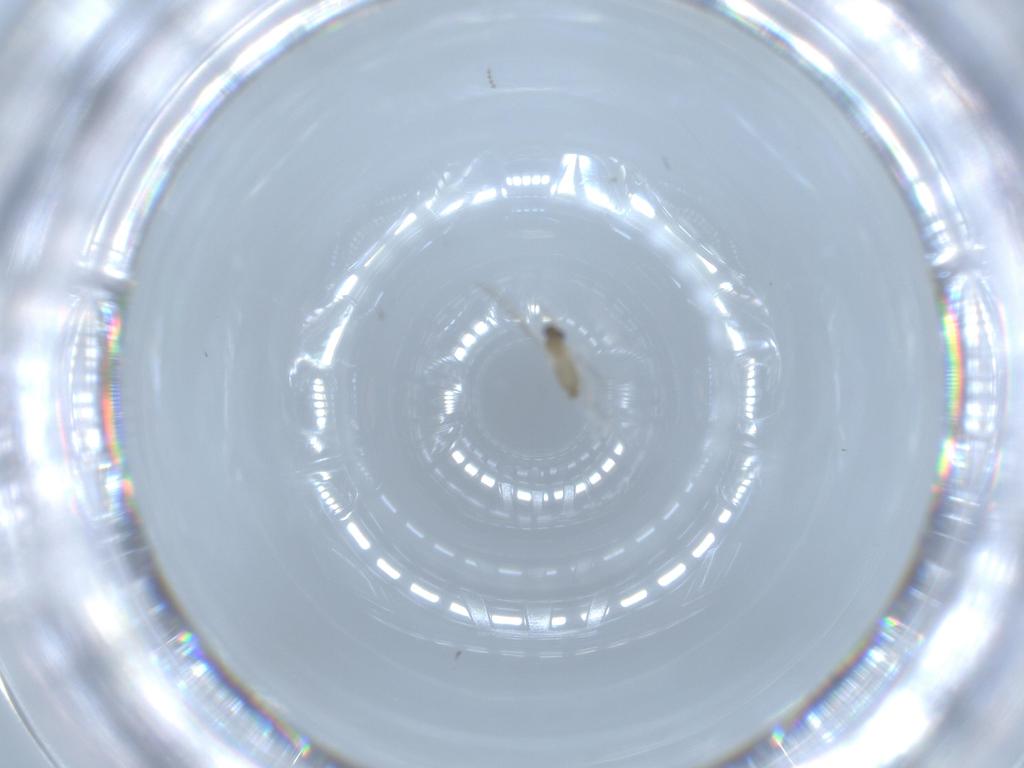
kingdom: Animalia
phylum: Arthropoda
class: Insecta
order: Diptera
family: Cecidomyiidae
